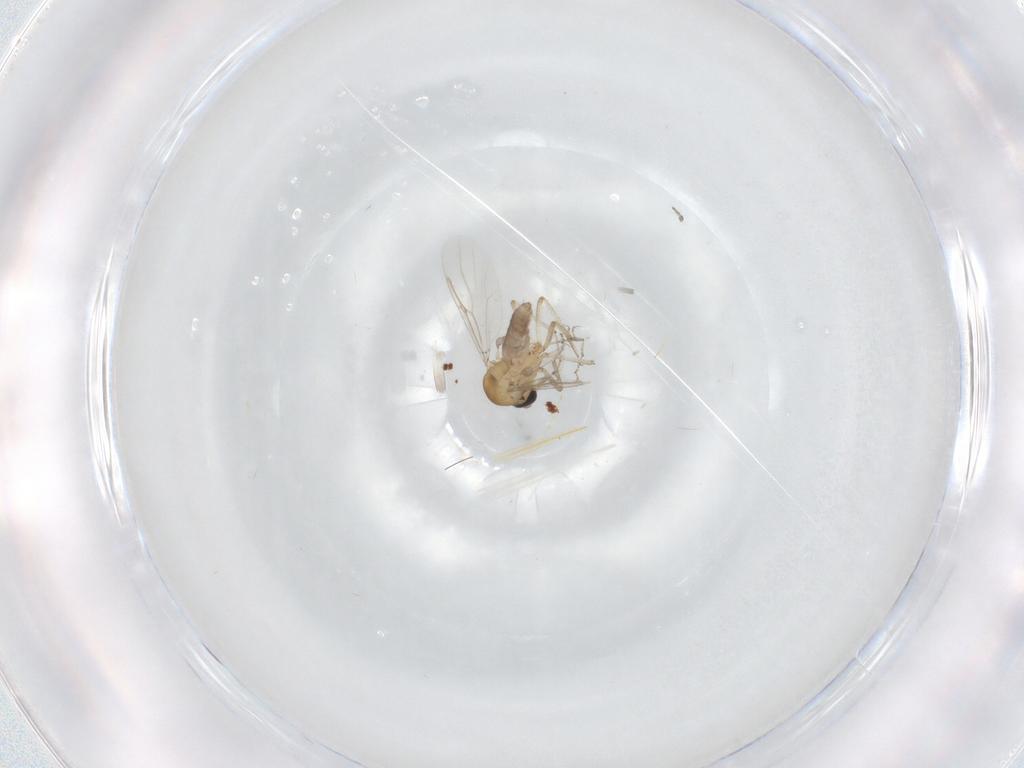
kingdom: Animalia
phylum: Arthropoda
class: Insecta
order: Diptera
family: Ceratopogonidae
